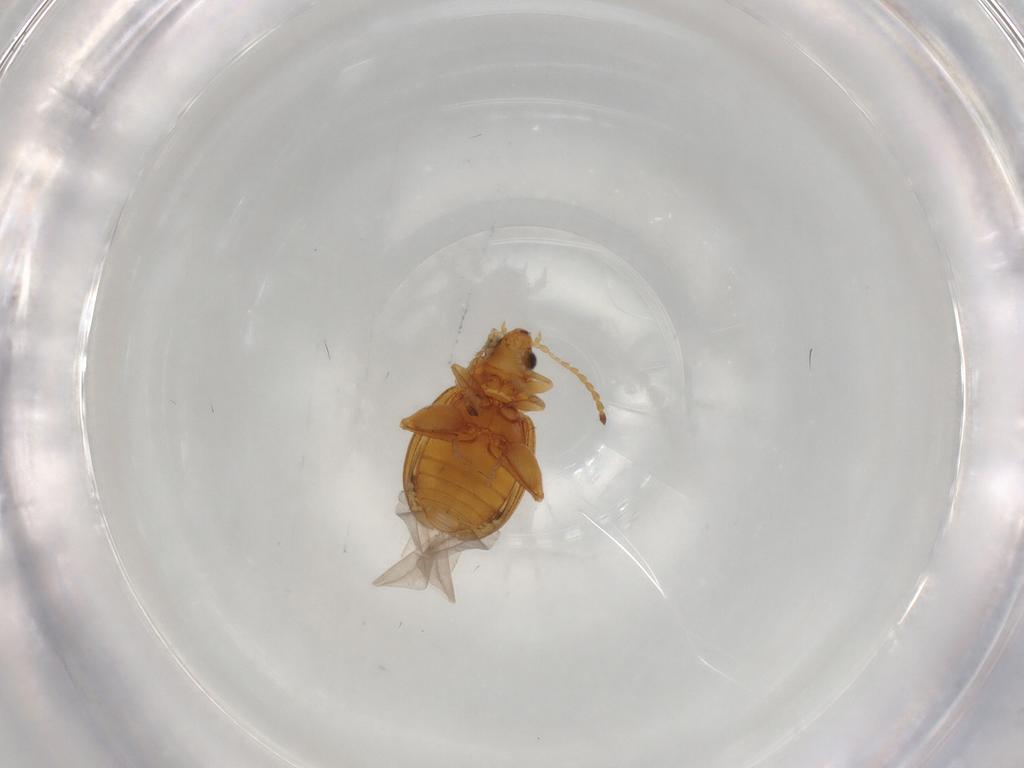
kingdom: Animalia
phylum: Arthropoda
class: Insecta
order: Coleoptera
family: Chrysomelidae
